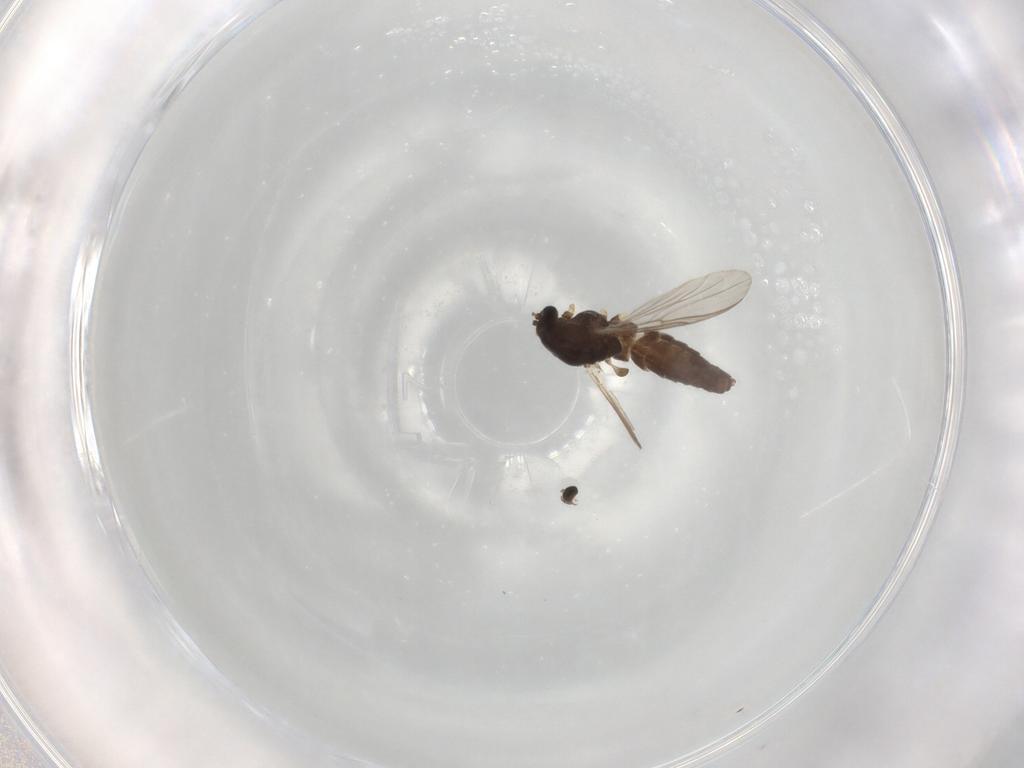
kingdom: Animalia
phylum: Arthropoda
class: Insecta
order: Diptera
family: Chironomidae
